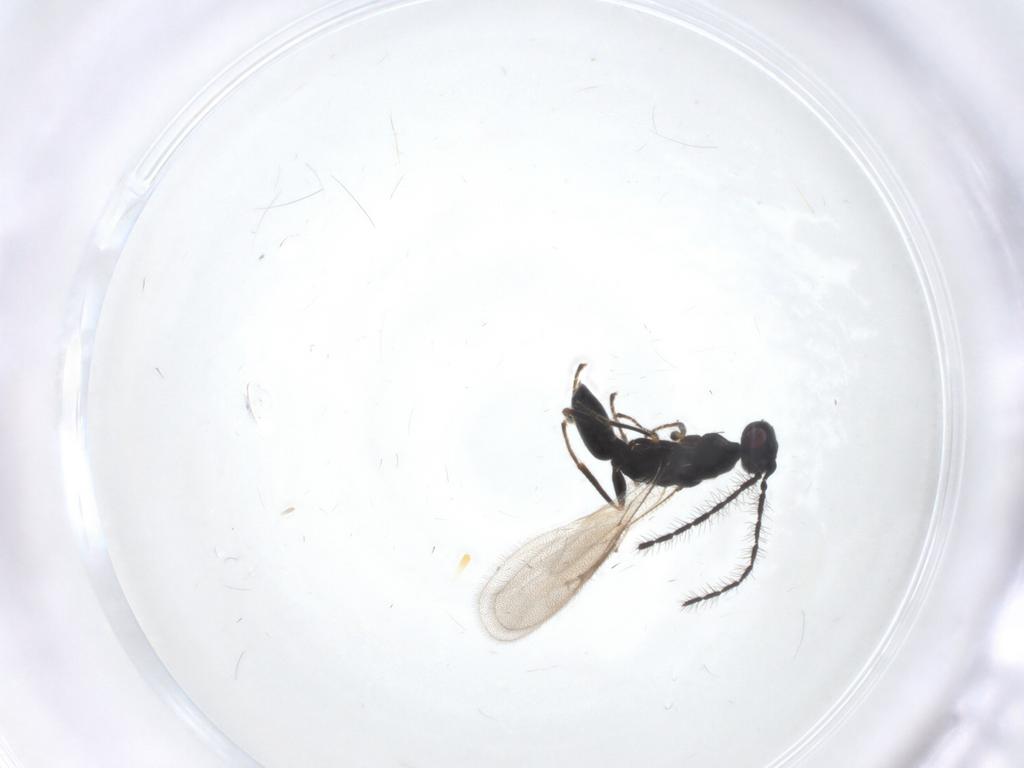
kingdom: Animalia
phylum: Arthropoda
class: Insecta
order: Hymenoptera
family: Eurytomidae
